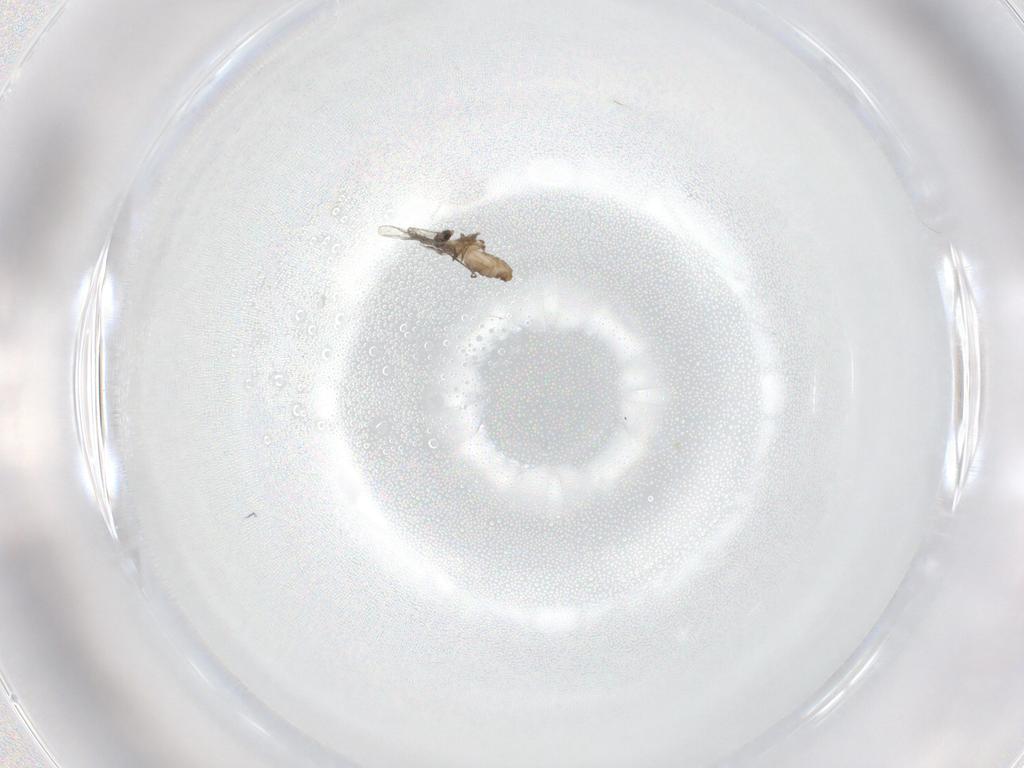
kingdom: Animalia
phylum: Arthropoda
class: Insecta
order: Diptera
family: Cecidomyiidae
